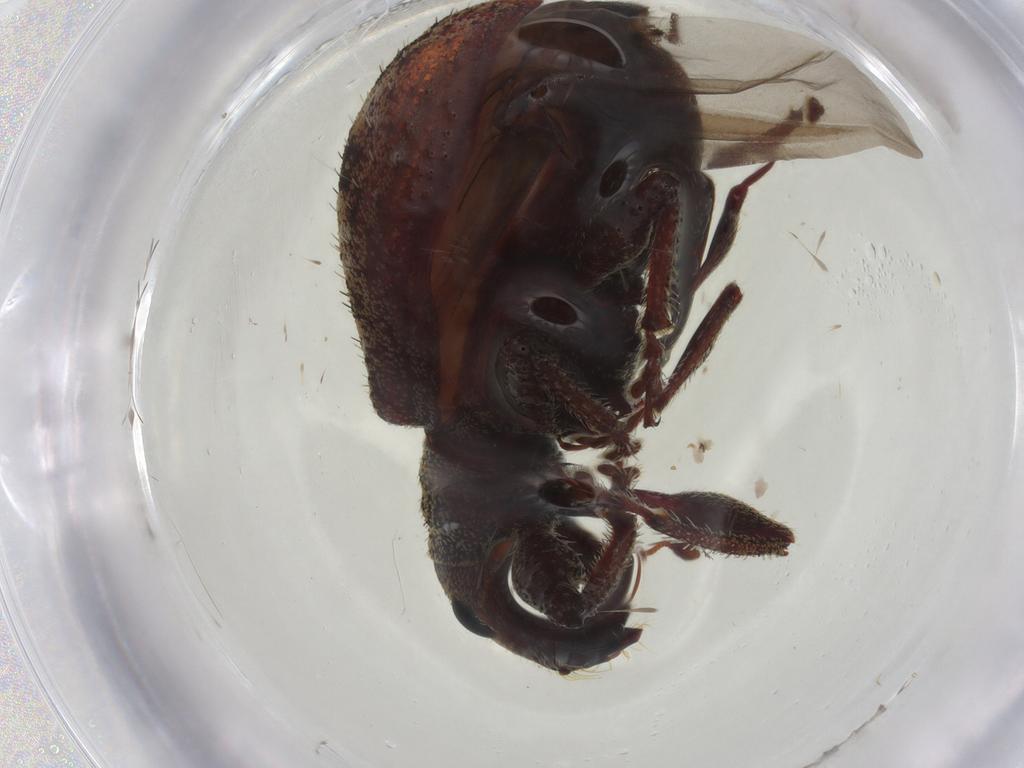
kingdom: Animalia
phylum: Arthropoda
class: Insecta
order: Coleoptera
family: Curculionidae
